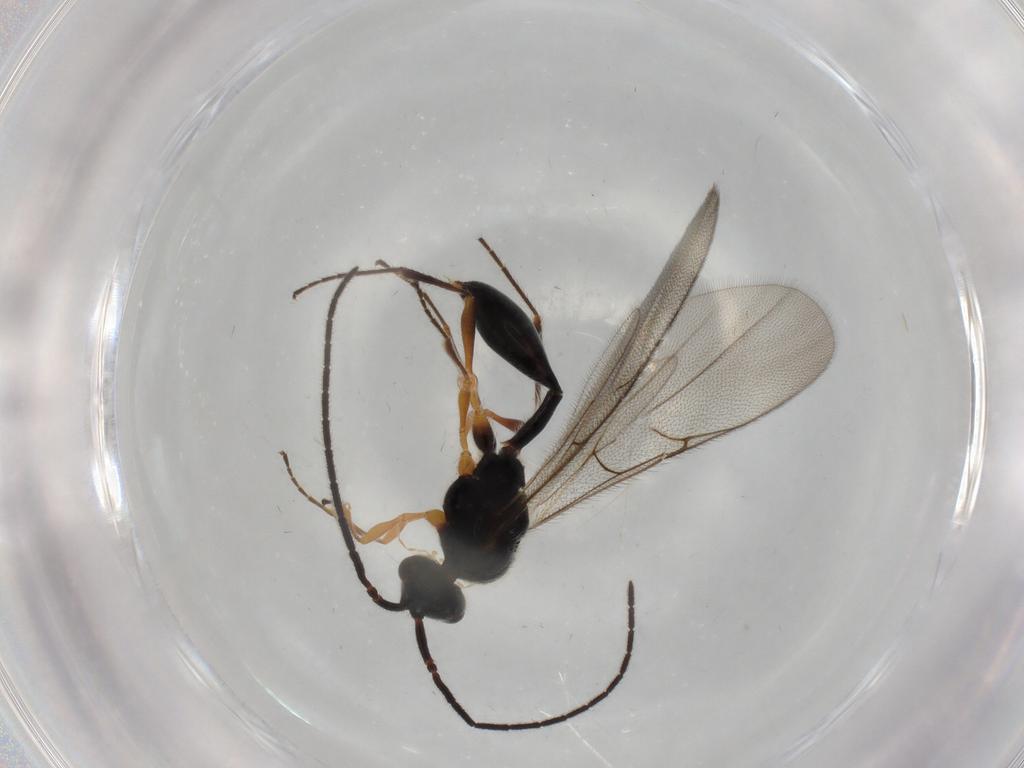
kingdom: Animalia
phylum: Arthropoda
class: Insecta
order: Hymenoptera
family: Diapriidae
